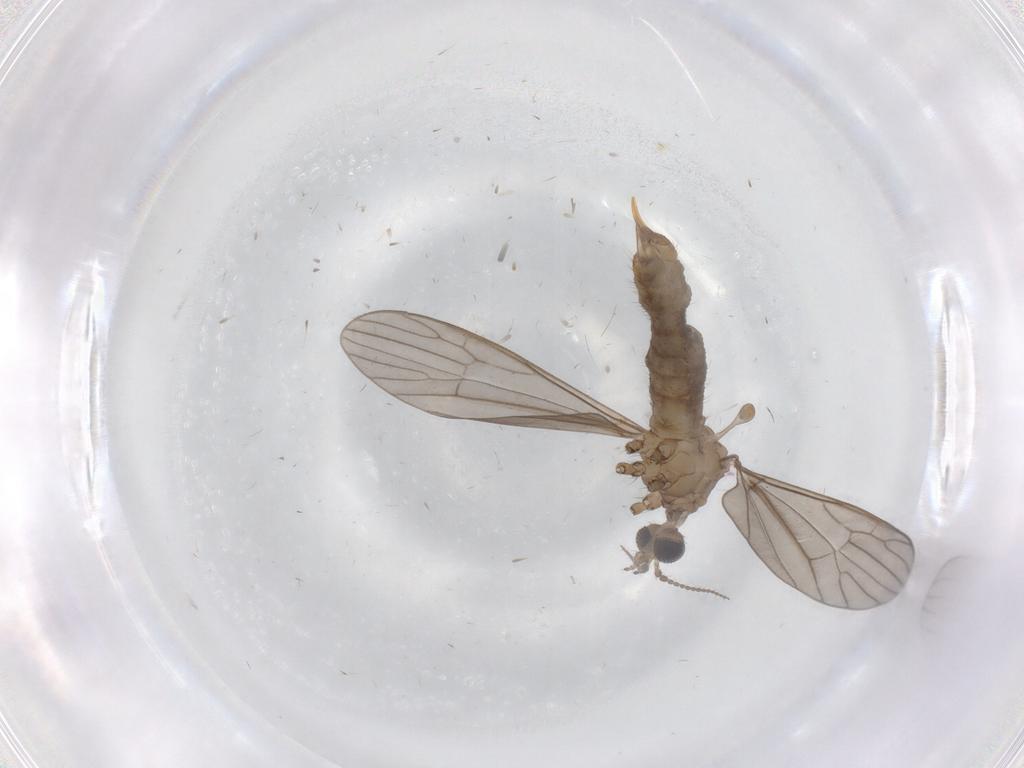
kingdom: Animalia
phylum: Arthropoda
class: Insecta
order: Diptera
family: Limoniidae
